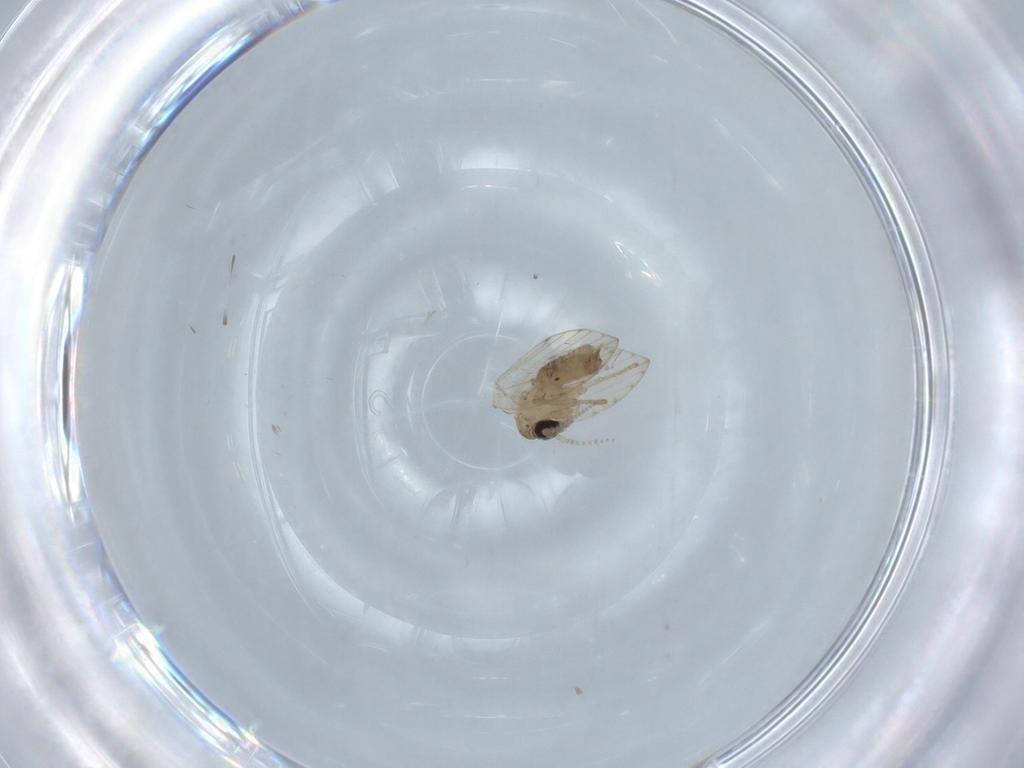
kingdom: Animalia
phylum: Arthropoda
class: Insecta
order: Diptera
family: Psychodidae
